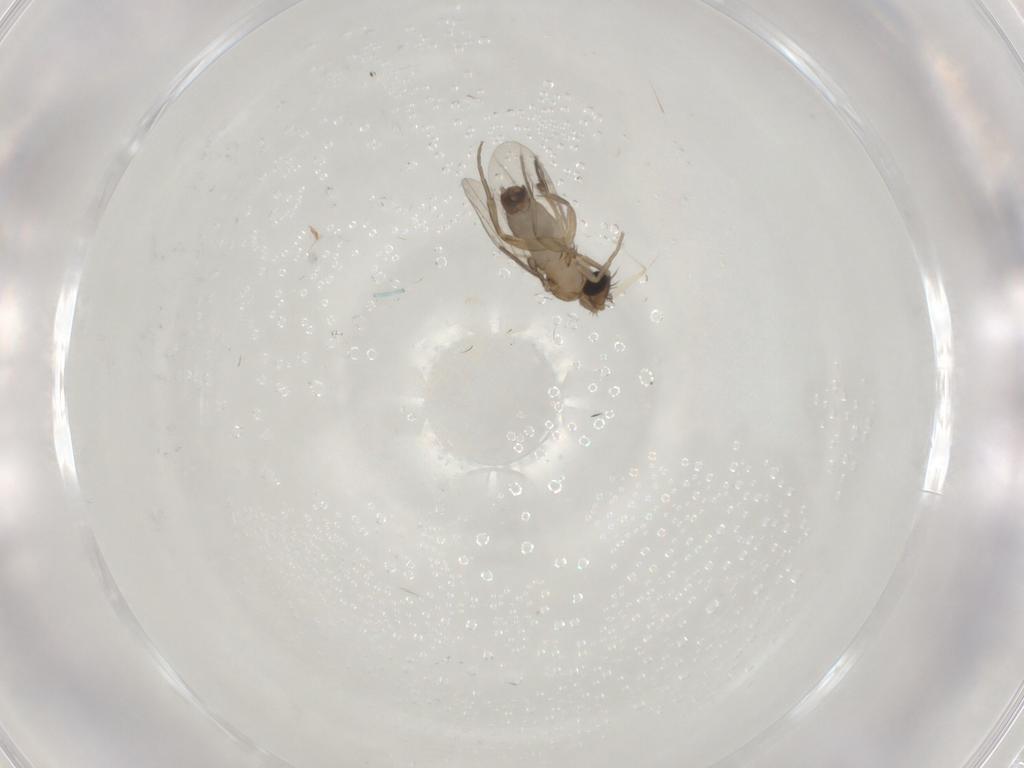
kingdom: Animalia
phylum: Arthropoda
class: Insecta
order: Diptera
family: Phoridae
